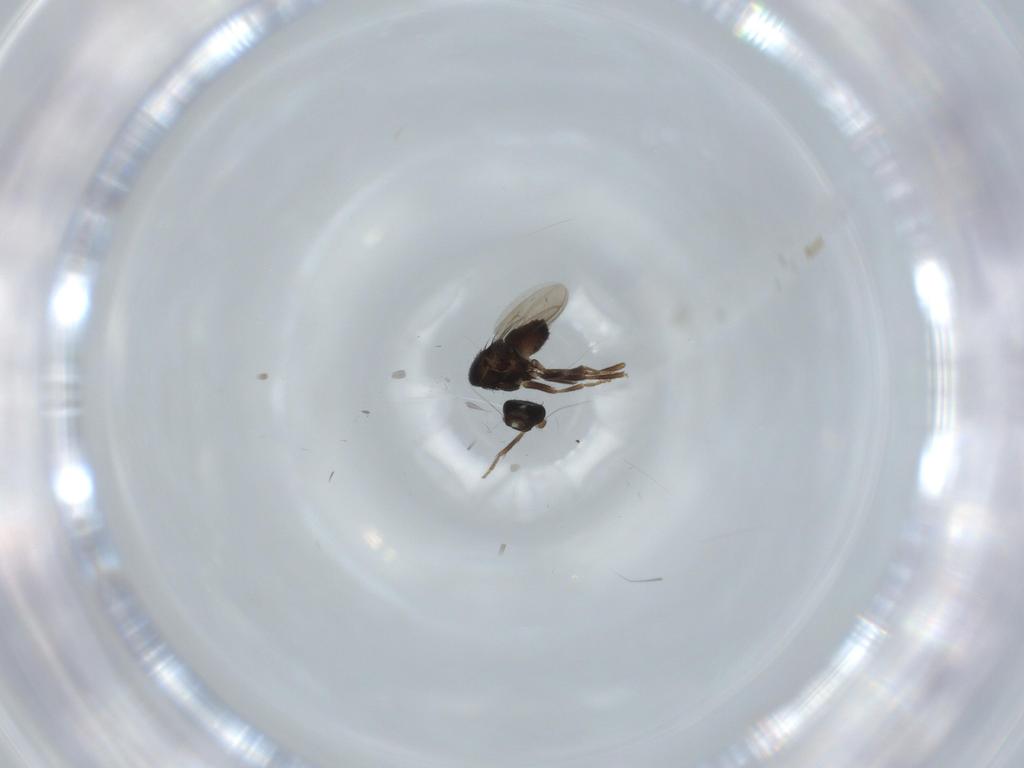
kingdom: Animalia
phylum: Arthropoda
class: Insecta
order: Diptera
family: Sphaeroceridae
